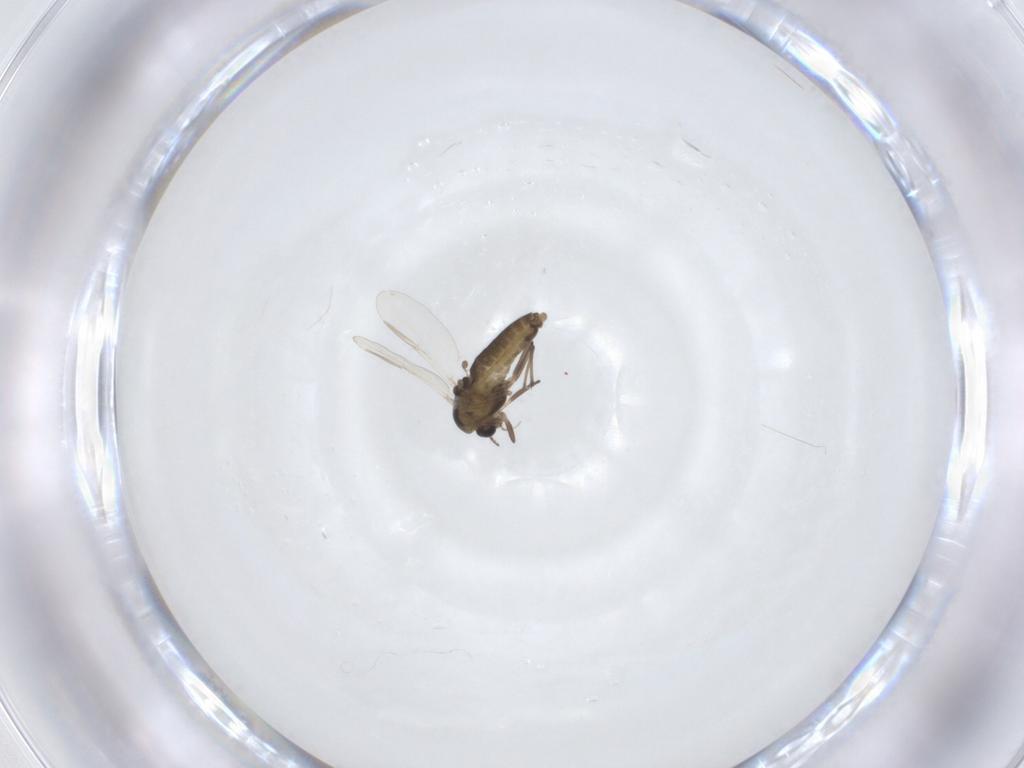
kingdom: Animalia
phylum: Arthropoda
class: Insecta
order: Diptera
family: Chironomidae
